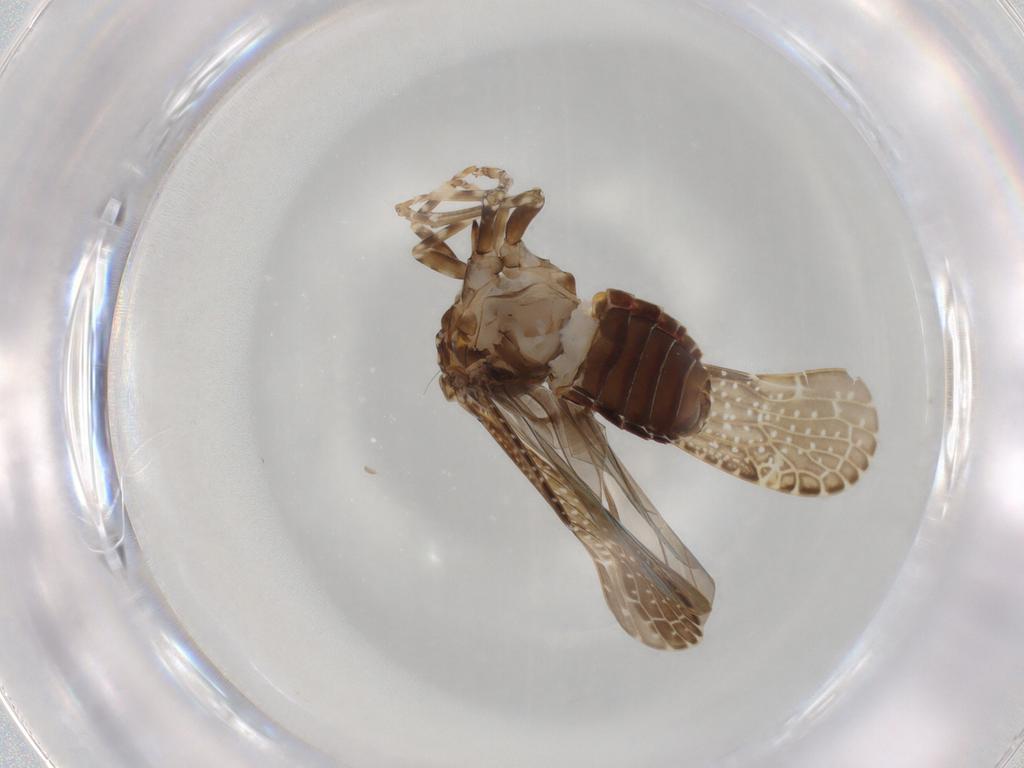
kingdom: Animalia
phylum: Arthropoda
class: Insecta
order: Hemiptera
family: Achilidae
